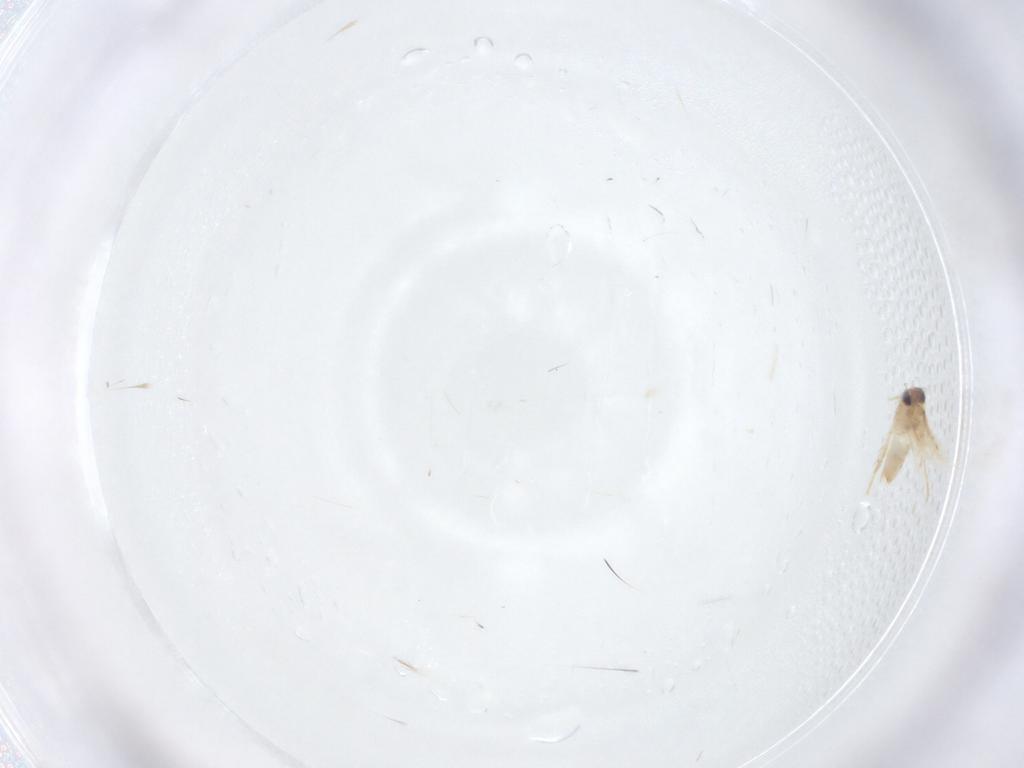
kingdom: Animalia
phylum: Arthropoda
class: Insecta
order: Lepidoptera
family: Crambidae
